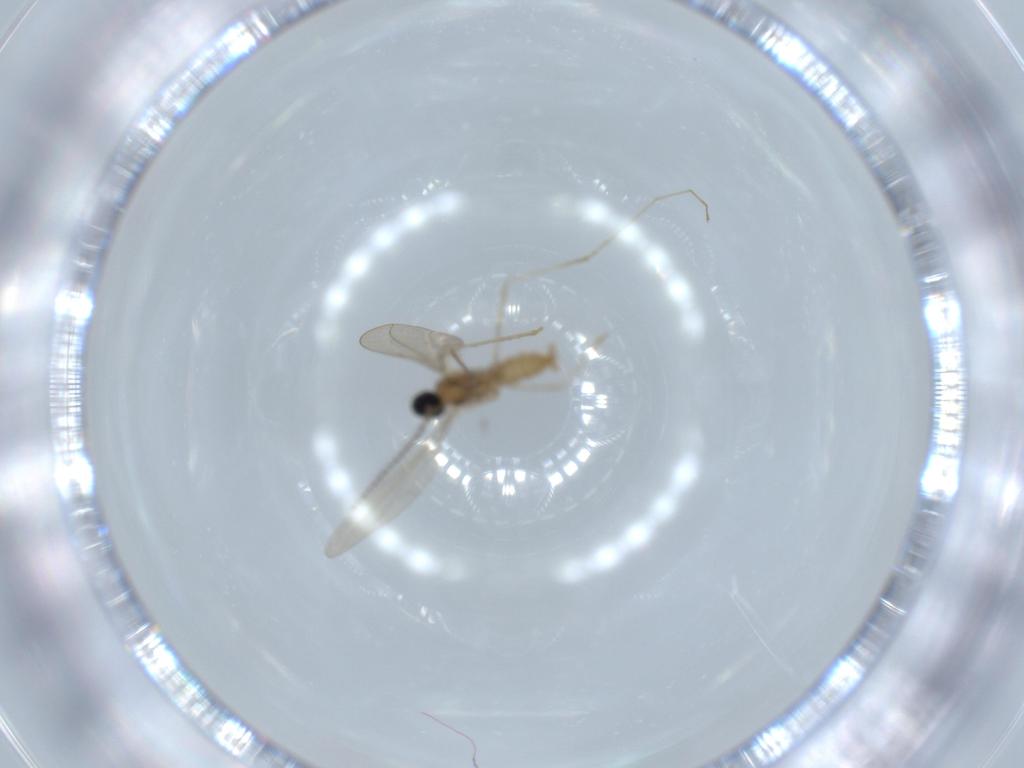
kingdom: Animalia
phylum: Arthropoda
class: Insecta
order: Diptera
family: Cecidomyiidae
